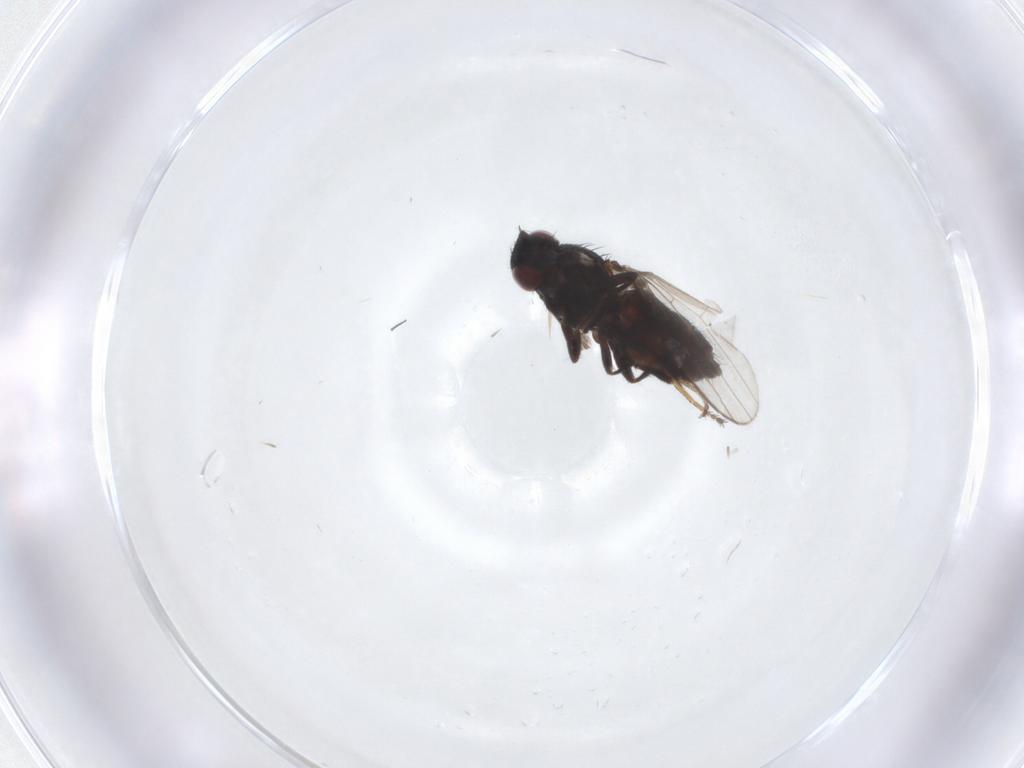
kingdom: Animalia
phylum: Arthropoda
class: Insecta
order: Diptera
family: Milichiidae
